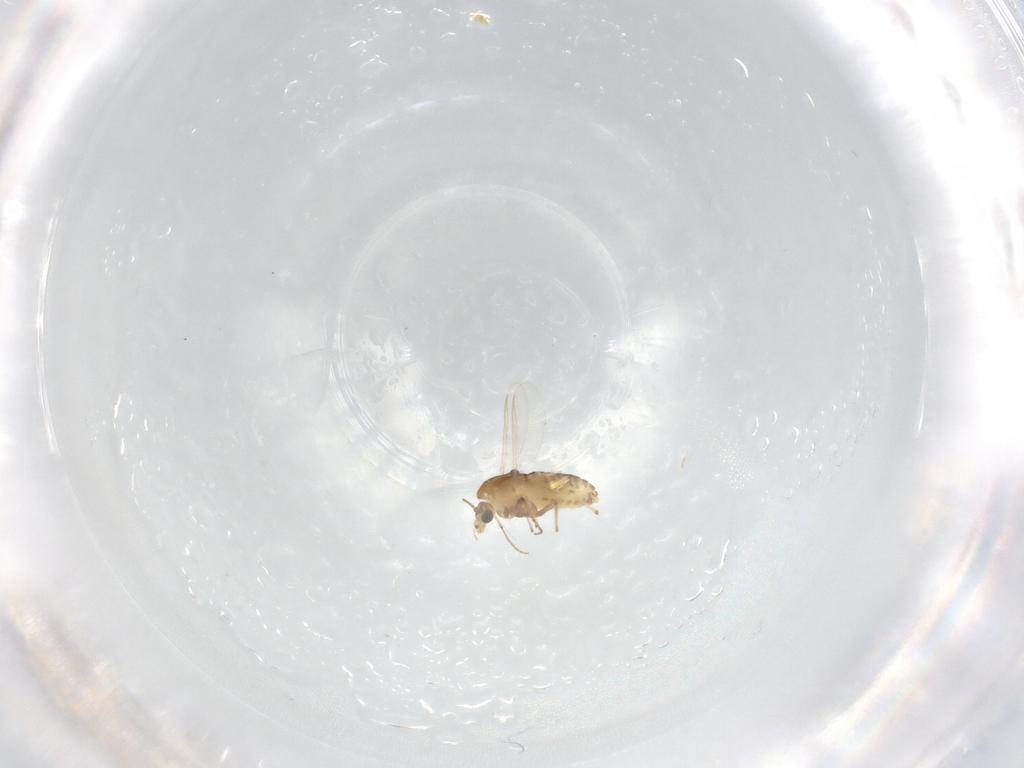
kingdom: Animalia
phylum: Arthropoda
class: Insecta
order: Diptera
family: Chironomidae
